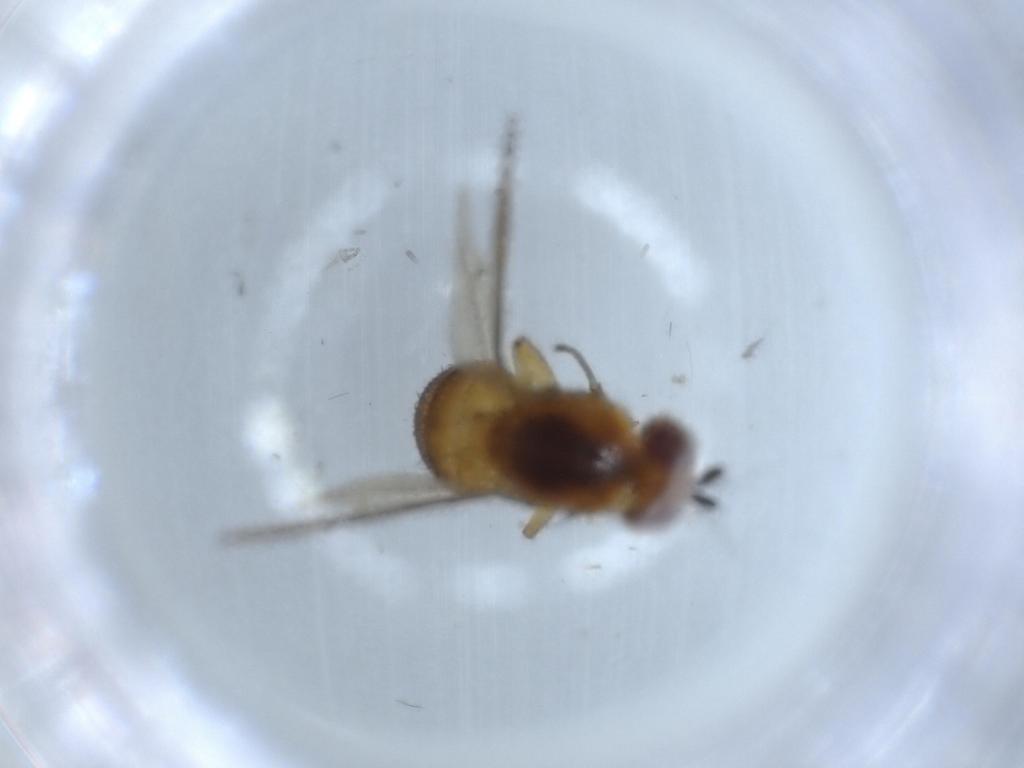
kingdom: Animalia
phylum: Arthropoda
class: Insecta
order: Diptera
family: Lauxaniidae
